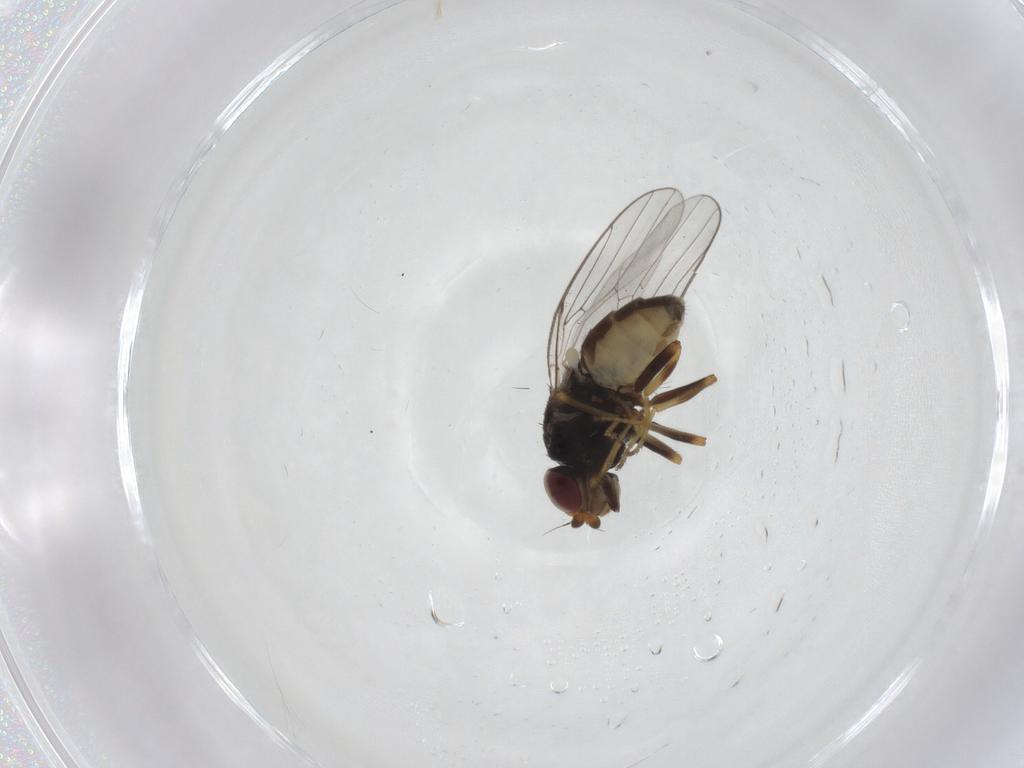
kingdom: Animalia
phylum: Arthropoda
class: Insecta
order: Diptera
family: Chloropidae
